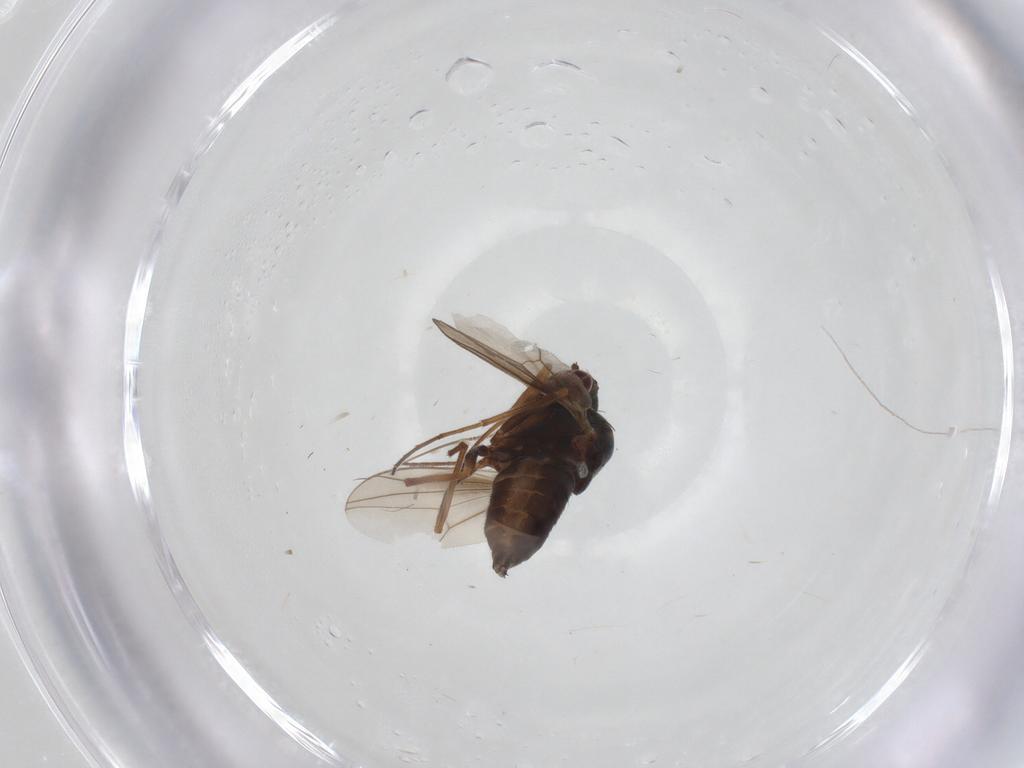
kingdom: Animalia
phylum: Arthropoda
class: Insecta
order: Diptera
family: Dolichopodidae
